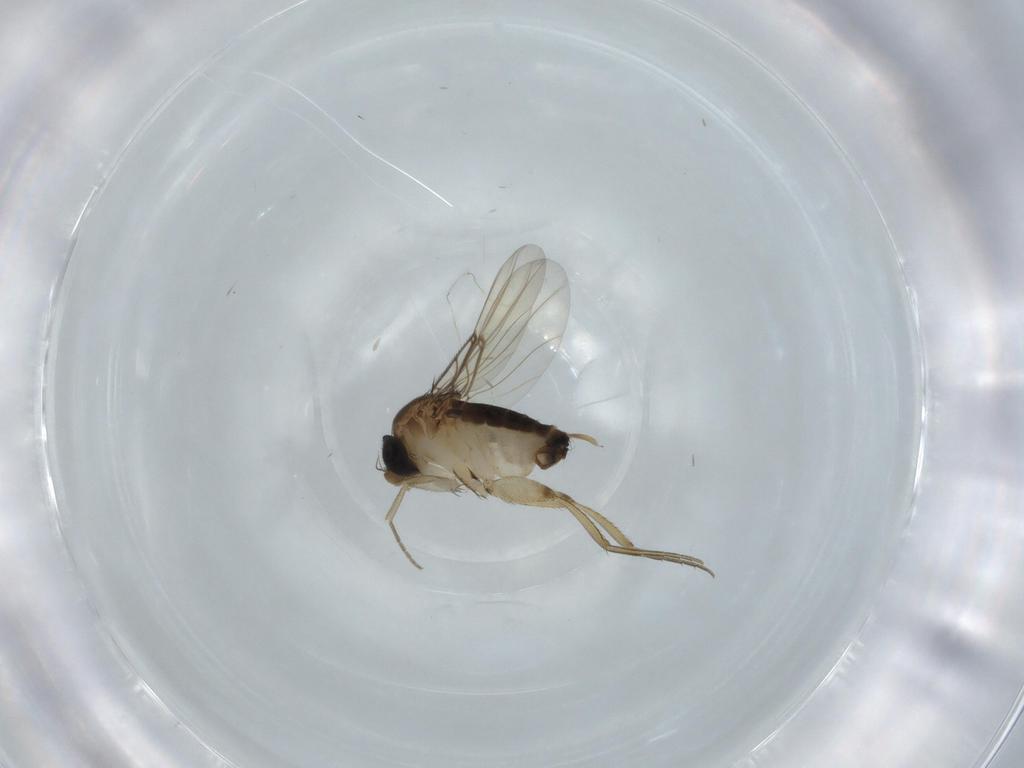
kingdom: Animalia
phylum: Arthropoda
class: Insecta
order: Diptera
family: Phoridae
